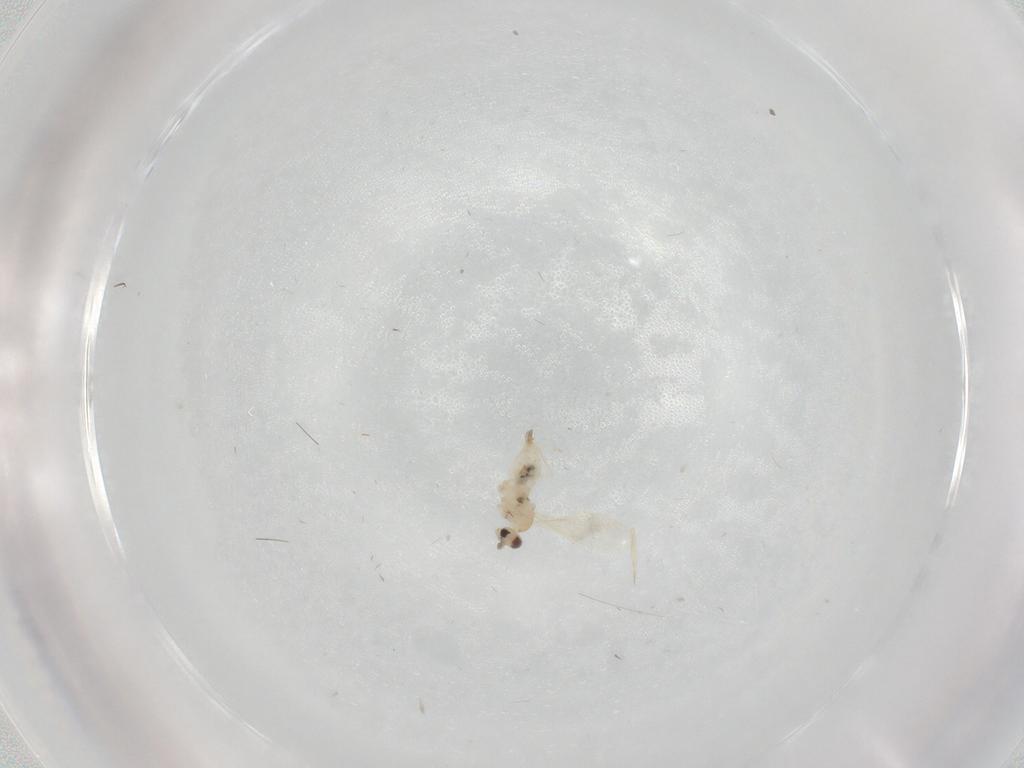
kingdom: Animalia
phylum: Arthropoda
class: Insecta
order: Diptera
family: Cecidomyiidae
